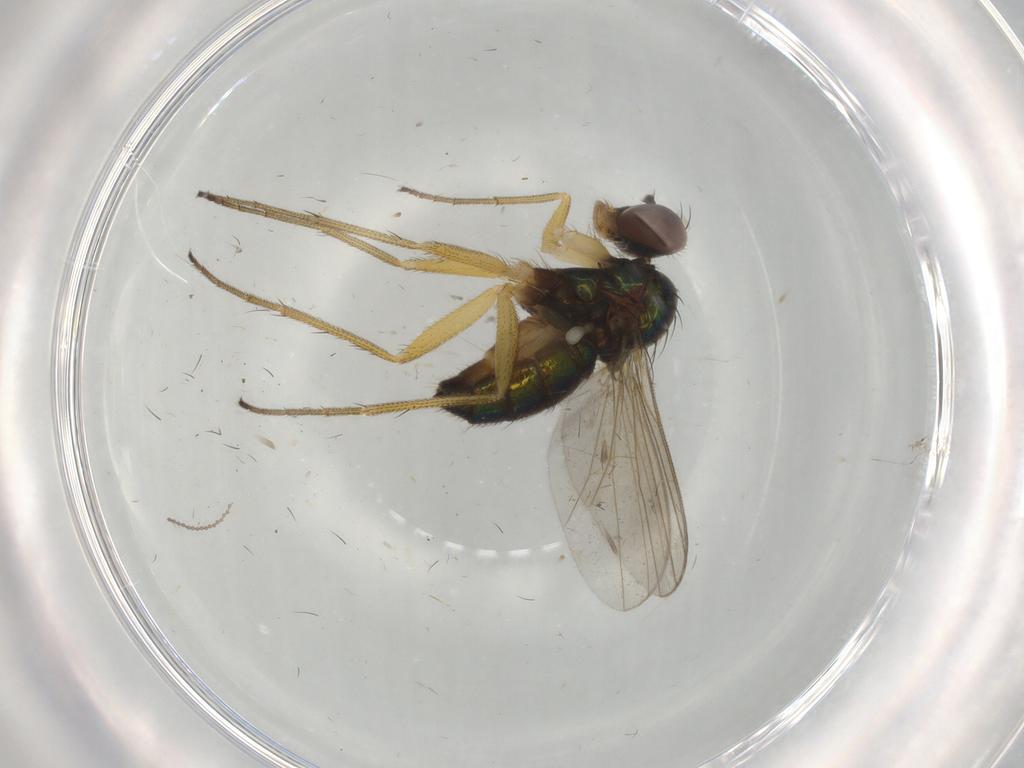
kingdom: Animalia
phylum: Arthropoda
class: Insecta
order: Diptera
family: Dolichopodidae
